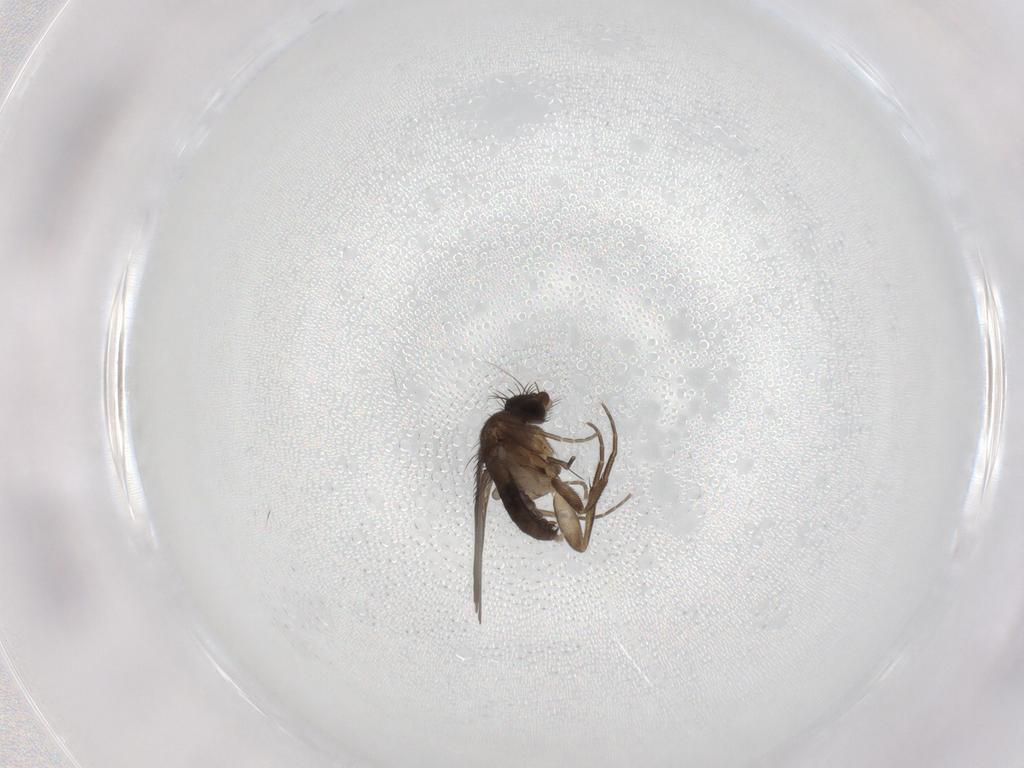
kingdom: Animalia
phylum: Arthropoda
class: Insecta
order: Diptera
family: Phoridae
